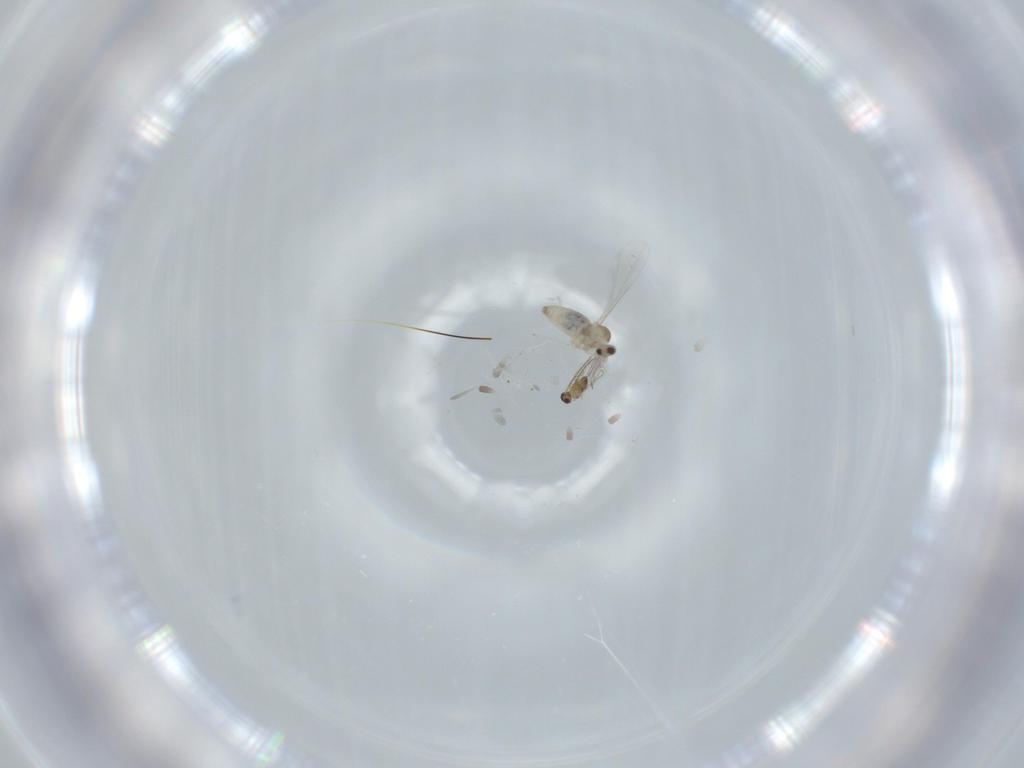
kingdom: Animalia
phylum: Arthropoda
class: Insecta
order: Diptera
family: Cecidomyiidae
